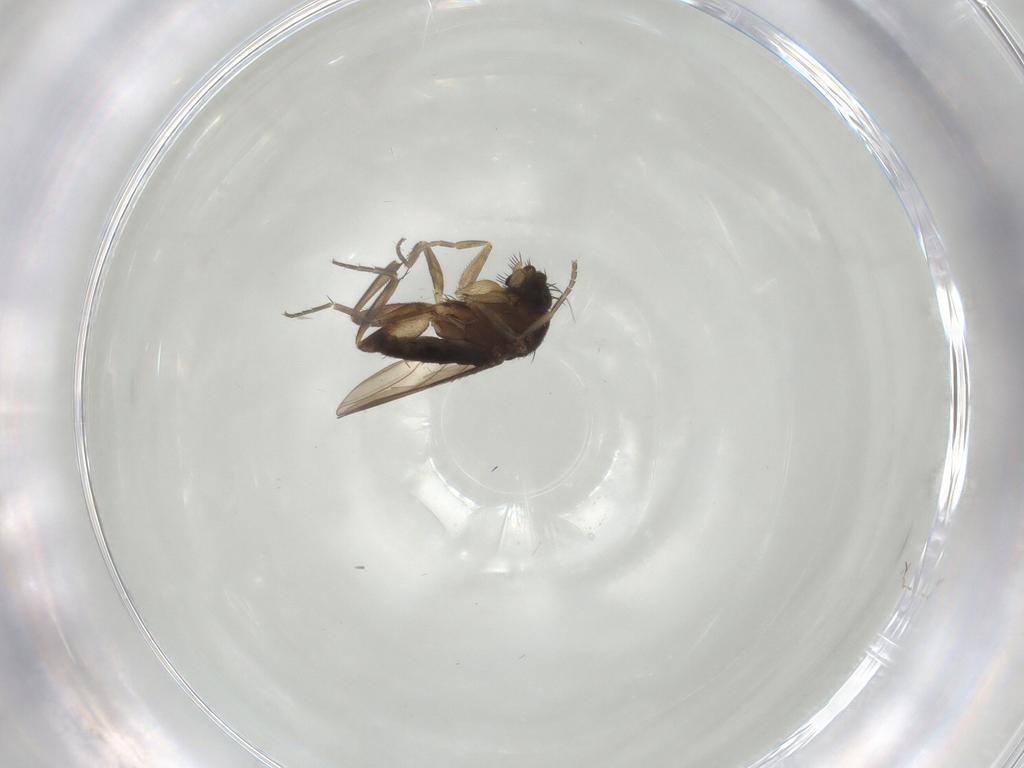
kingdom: Animalia
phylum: Arthropoda
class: Insecta
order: Diptera
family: Phoridae
